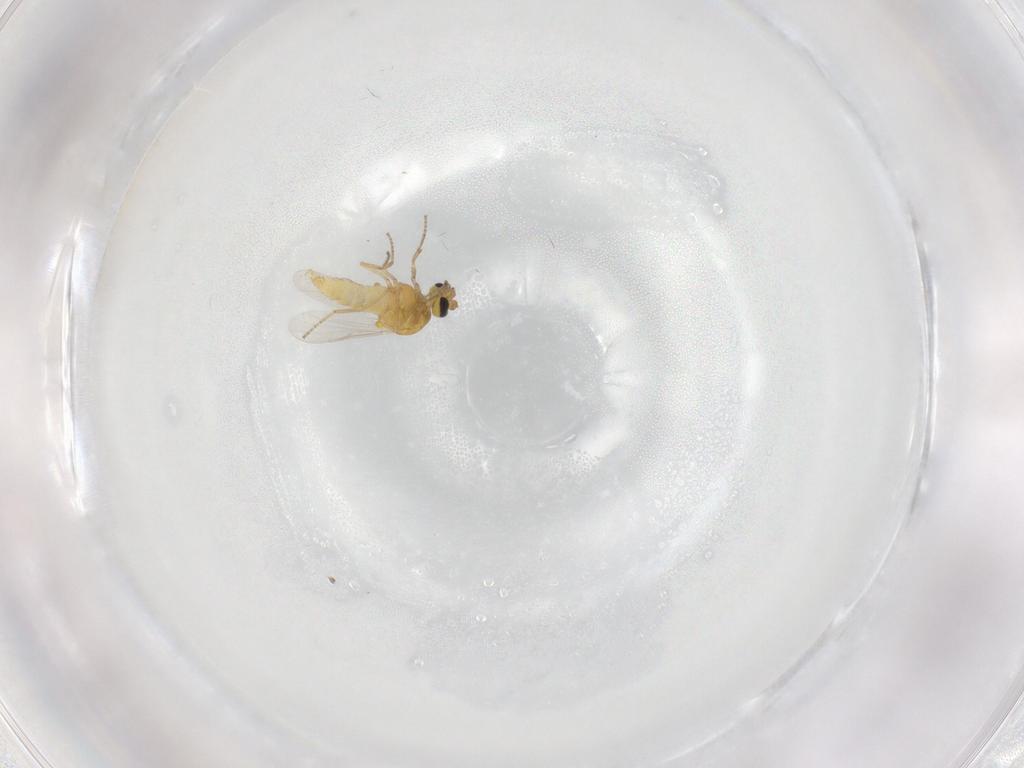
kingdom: Animalia
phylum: Arthropoda
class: Insecta
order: Diptera
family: Ceratopogonidae
